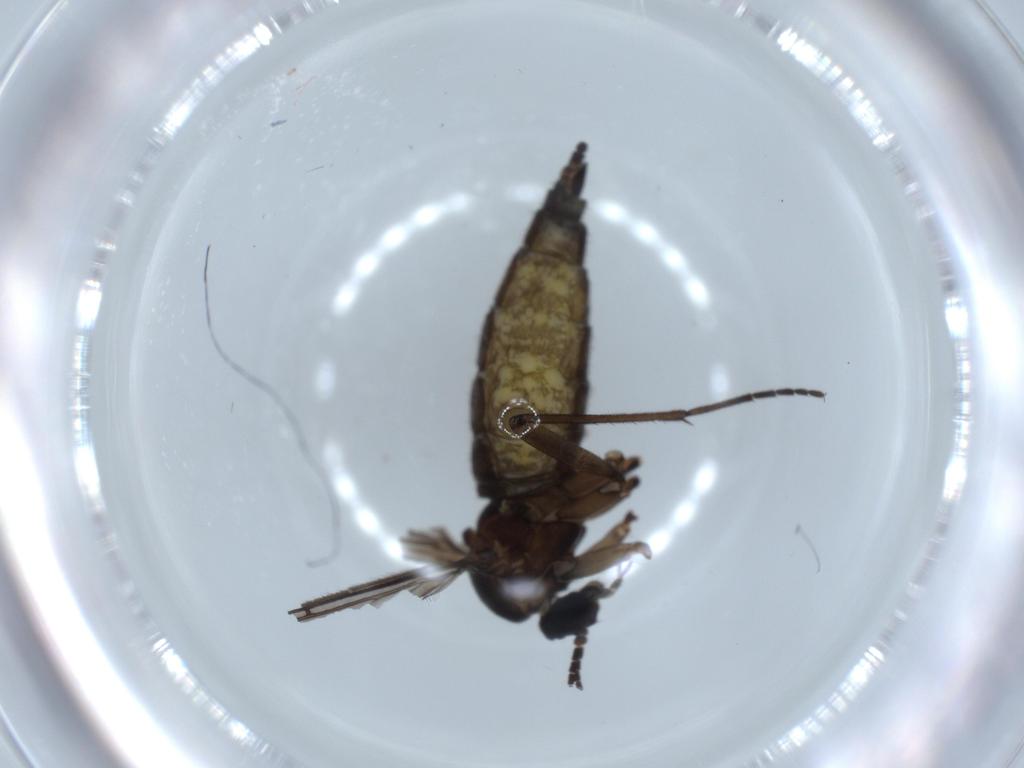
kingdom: Animalia
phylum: Arthropoda
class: Insecta
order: Diptera
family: Sciaridae
